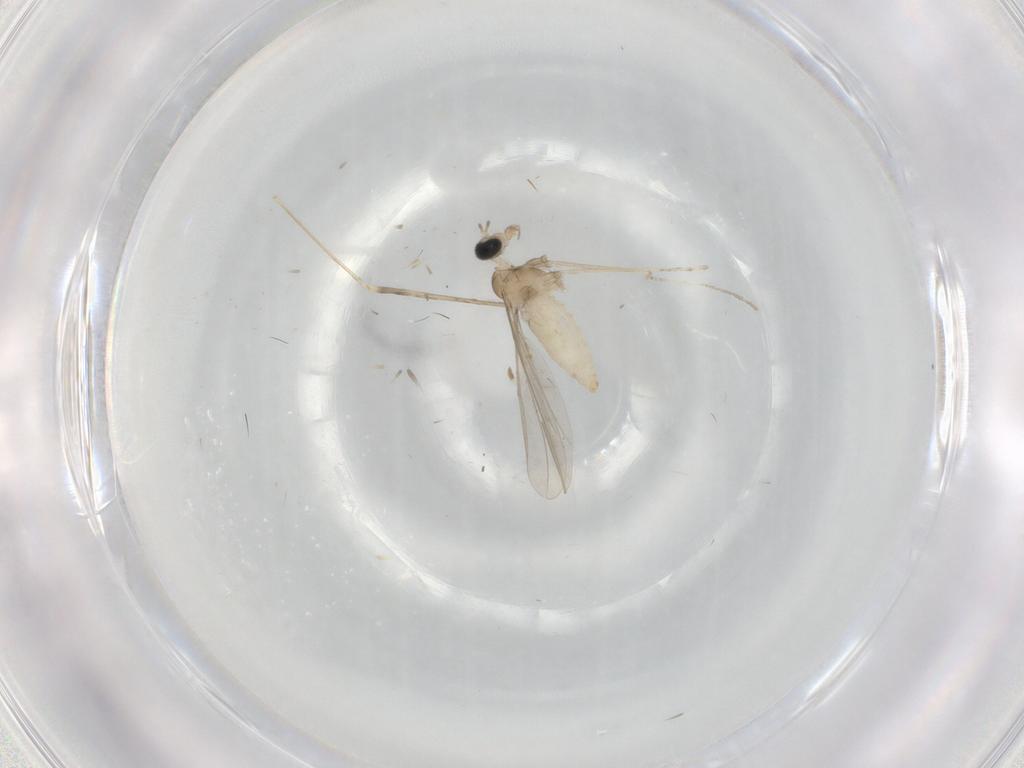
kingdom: Animalia
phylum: Arthropoda
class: Insecta
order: Diptera
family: Cecidomyiidae
